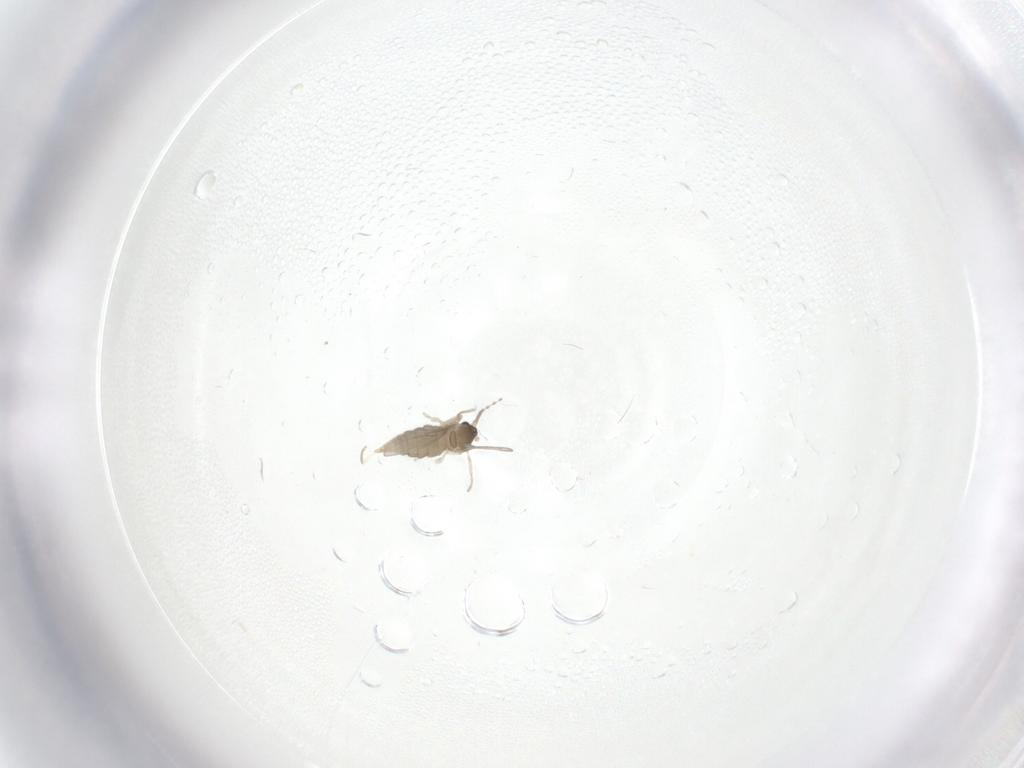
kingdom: Animalia
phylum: Arthropoda
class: Insecta
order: Diptera
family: Cecidomyiidae
